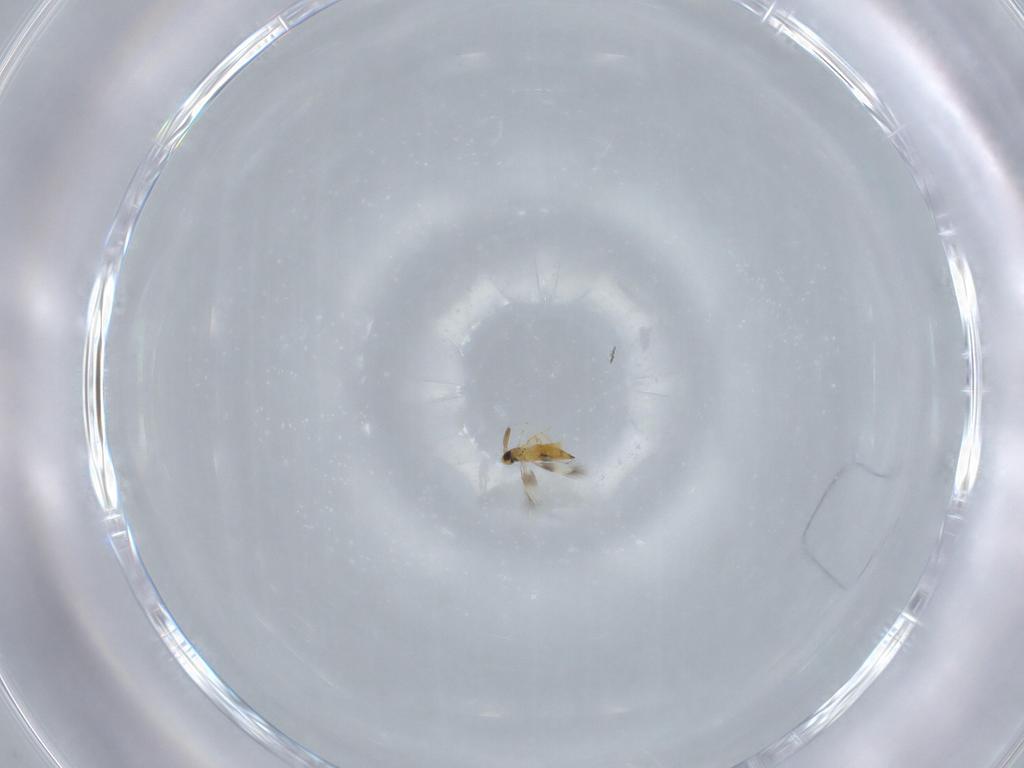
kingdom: Animalia
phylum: Arthropoda
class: Insecta
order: Hymenoptera
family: Signiphoridae
